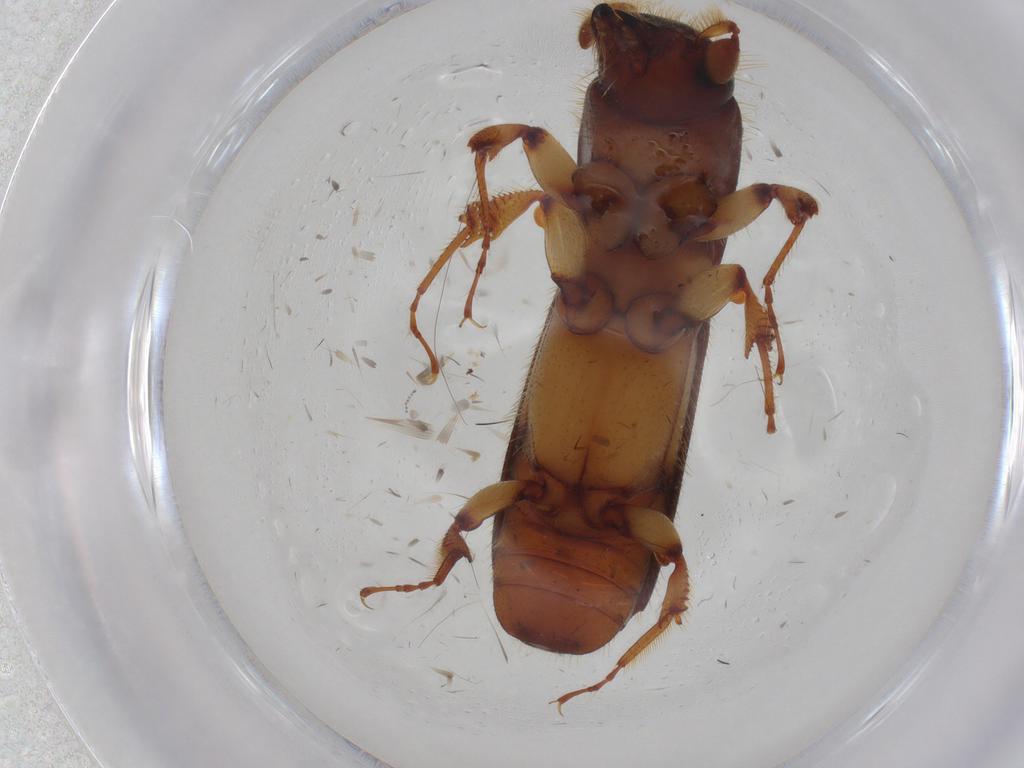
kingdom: Animalia
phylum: Arthropoda
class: Insecta
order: Coleoptera
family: Curculionidae
